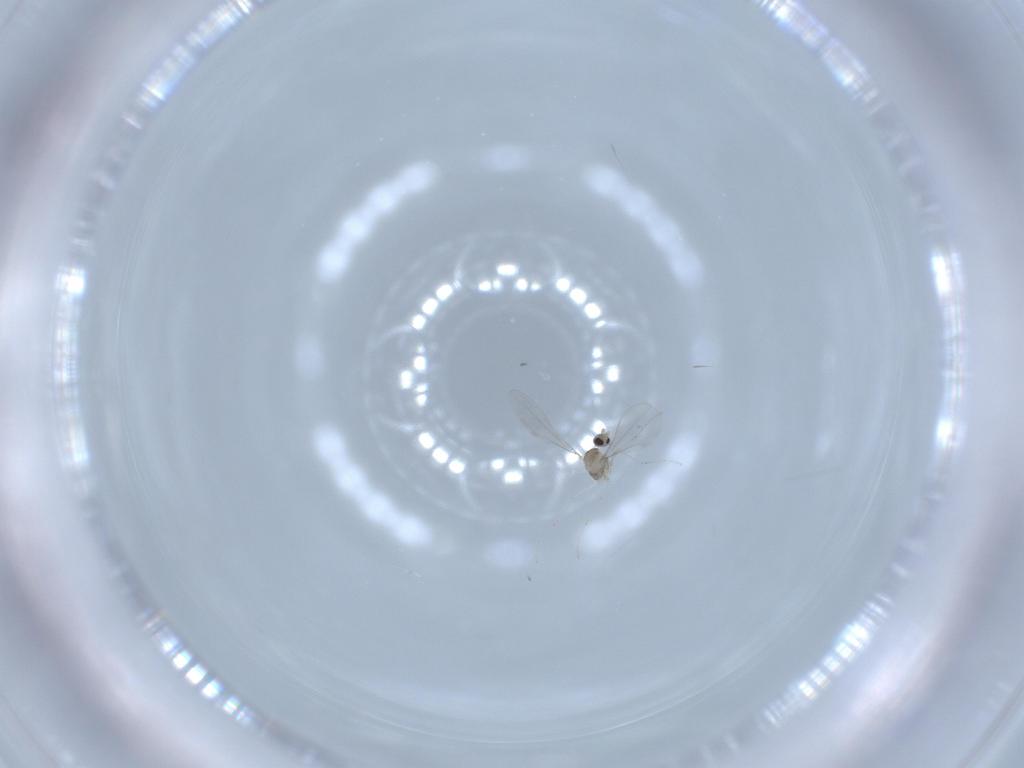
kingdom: Animalia
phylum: Arthropoda
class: Insecta
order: Diptera
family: Cecidomyiidae
